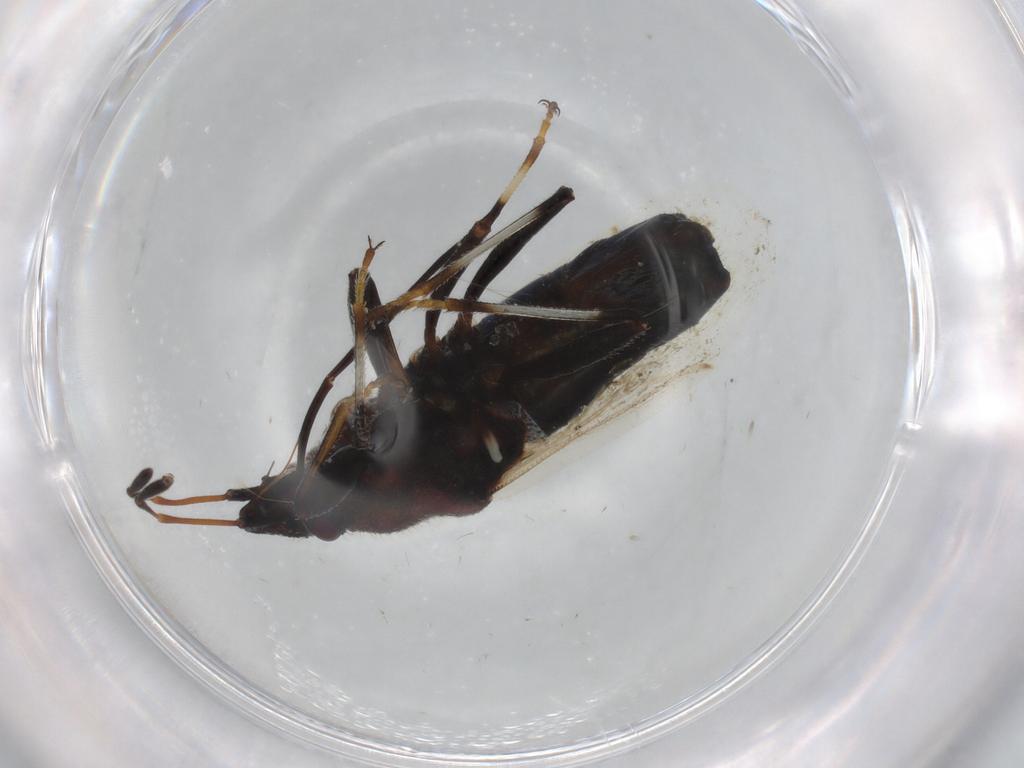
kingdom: Animalia
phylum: Arthropoda
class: Insecta
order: Hemiptera
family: Oxycarenidae
